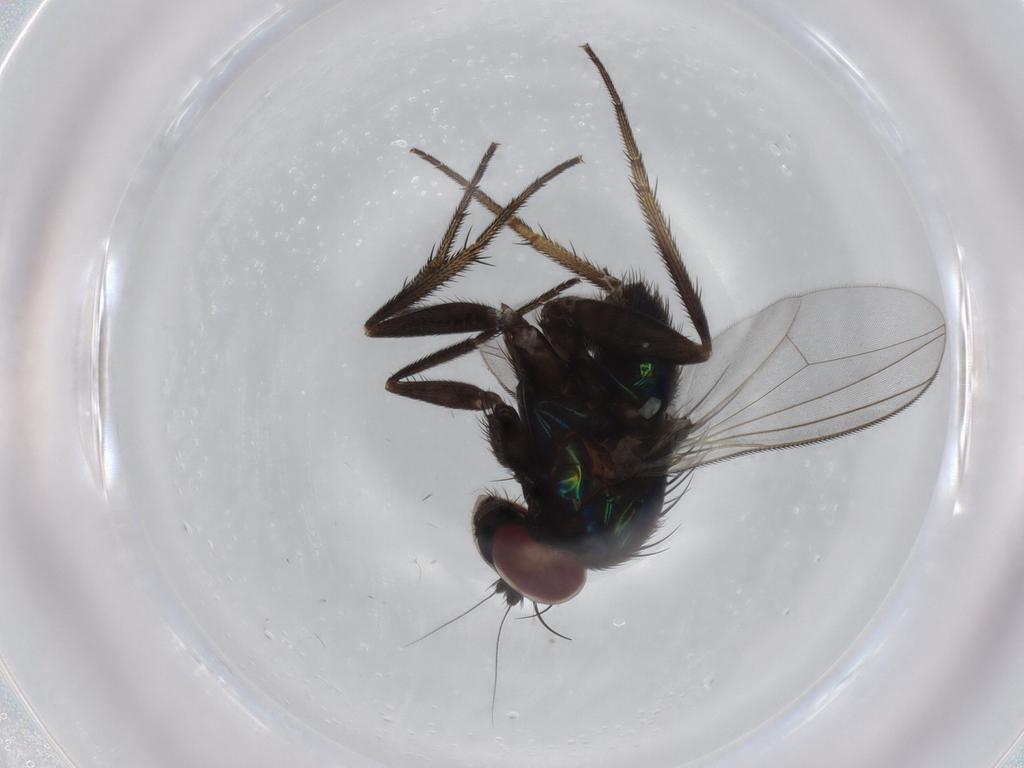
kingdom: Animalia
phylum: Arthropoda
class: Insecta
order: Diptera
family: Dolichopodidae
